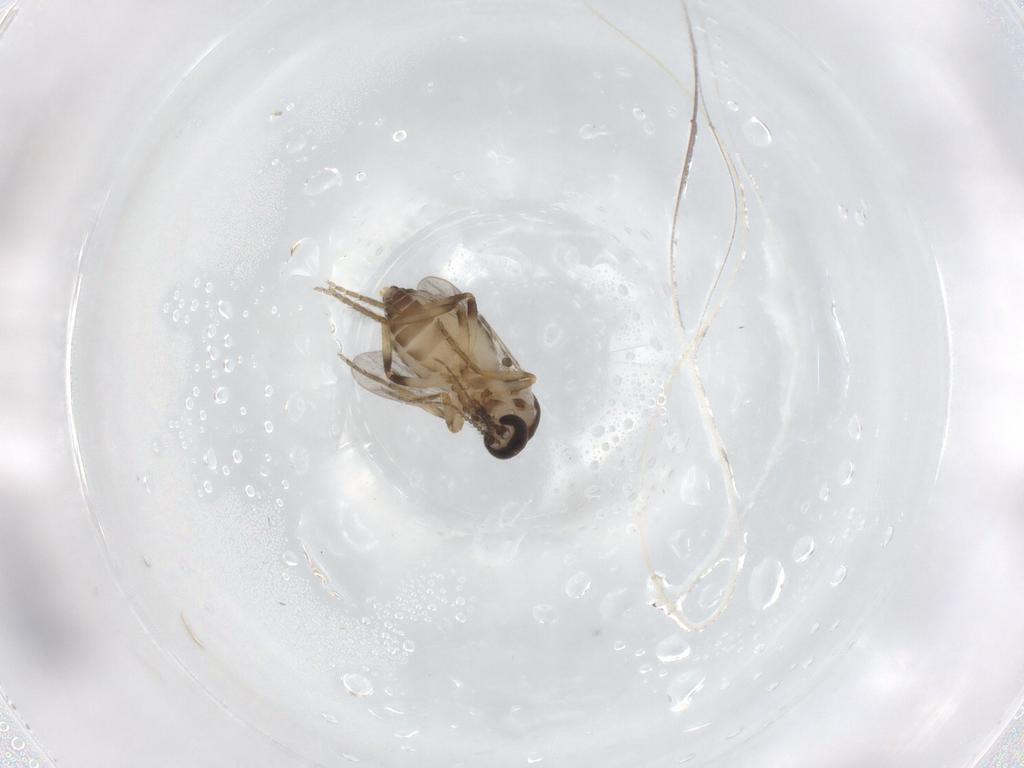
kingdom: Animalia
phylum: Arthropoda
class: Insecta
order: Diptera
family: Ceratopogonidae
